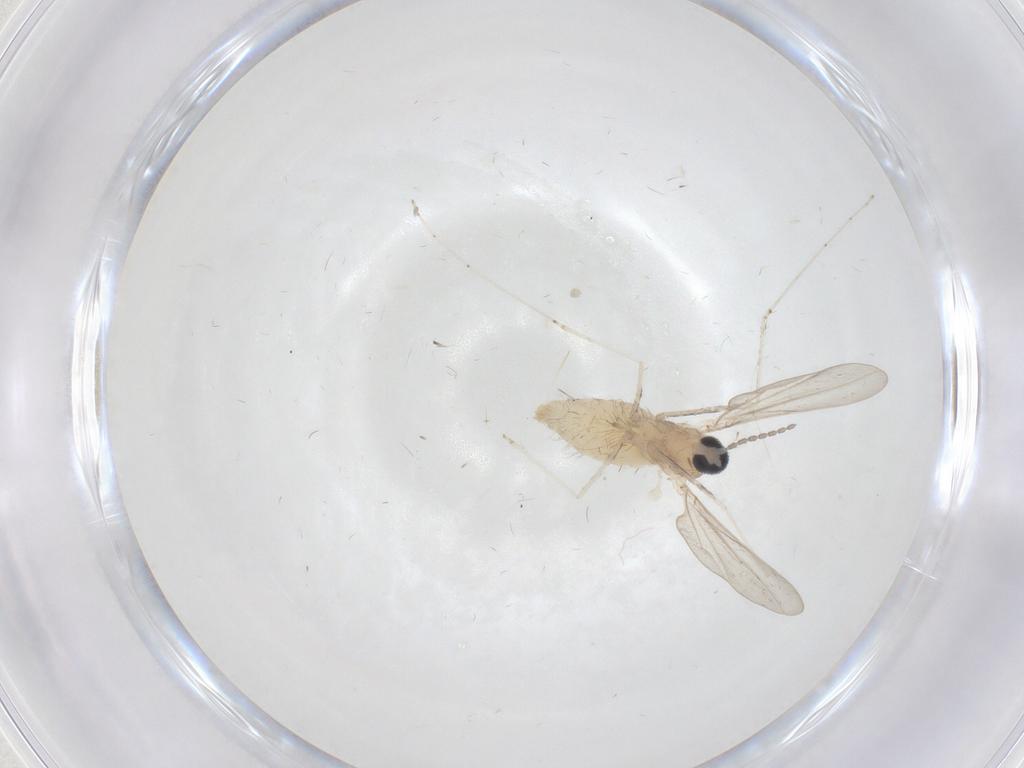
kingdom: Animalia
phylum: Arthropoda
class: Insecta
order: Diptera
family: Cecidomyiidae
